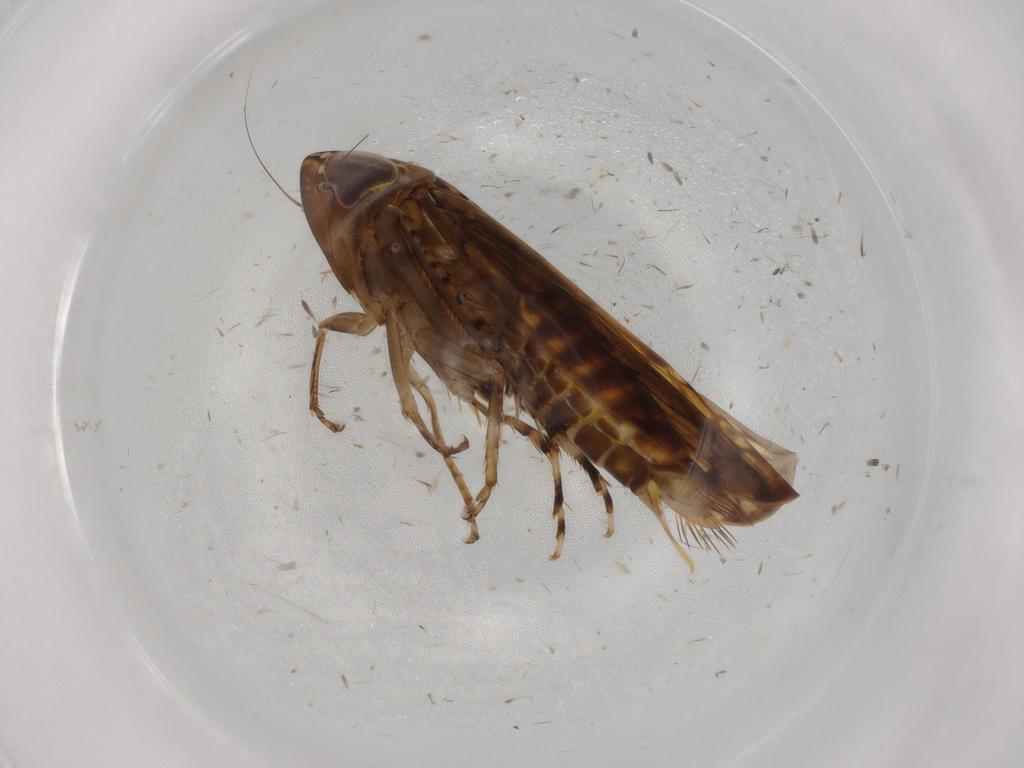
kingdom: Animalia
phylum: Arthropoda
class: Insecta
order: Hemiptera
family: Cicadellidae
